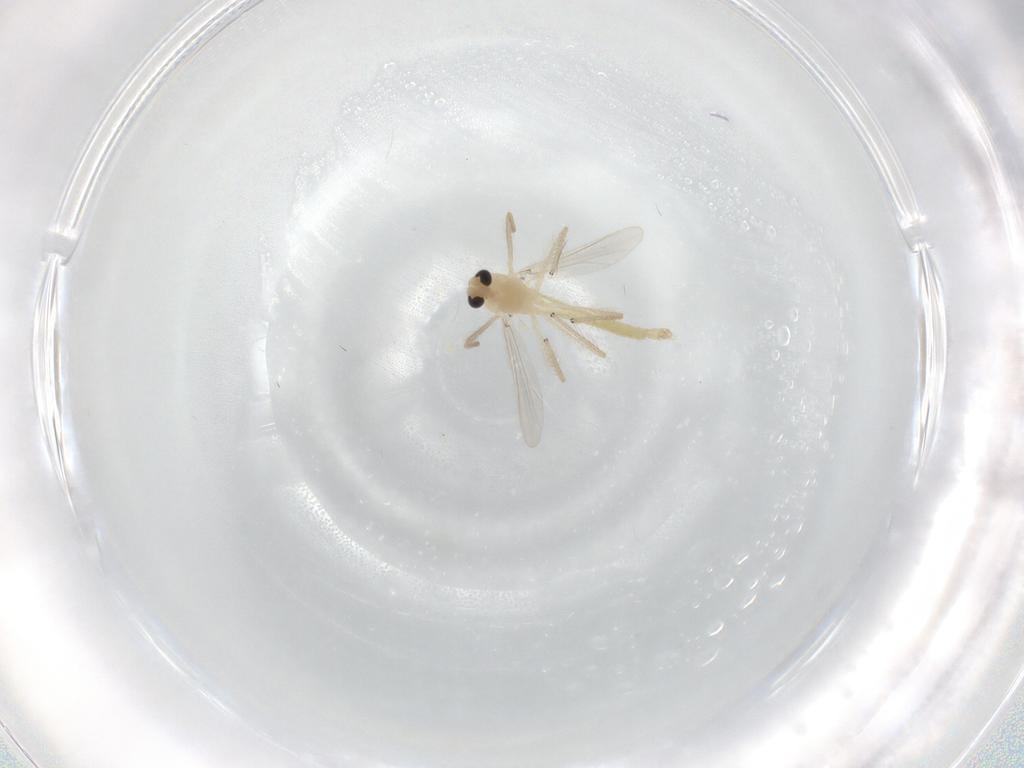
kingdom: Animalia
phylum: Arthropoda
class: Insecta
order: Diptera
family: Chironomidae
